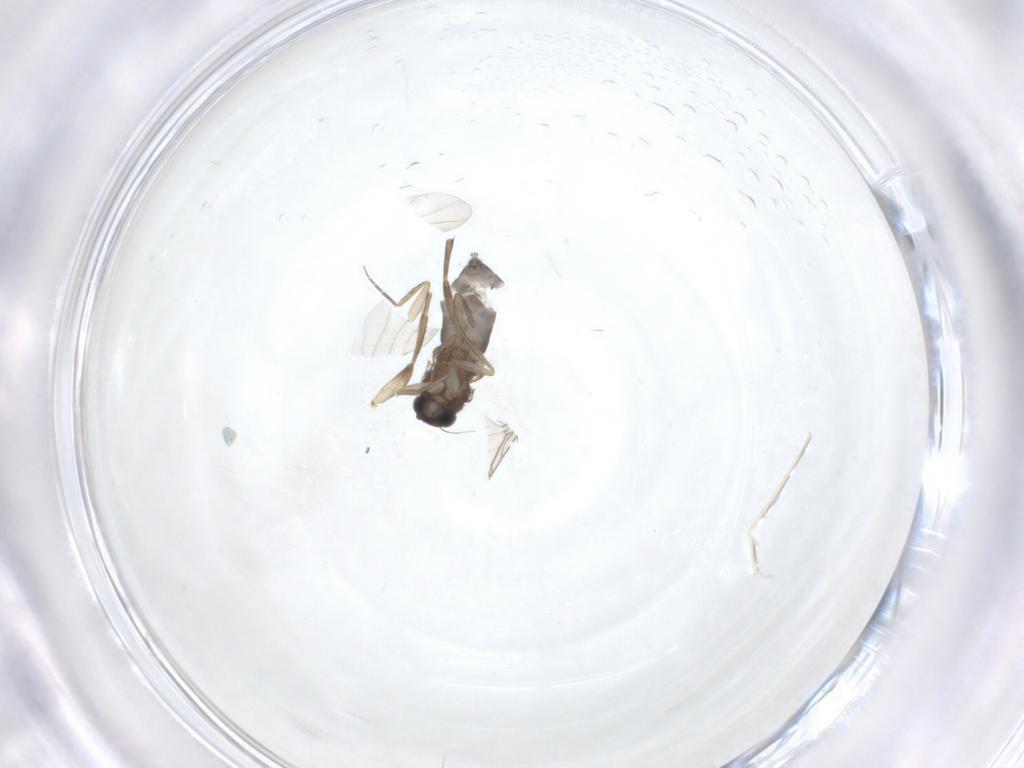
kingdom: Animalia
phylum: Arthropoda
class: Insecta
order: Diptera
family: Phoridae
